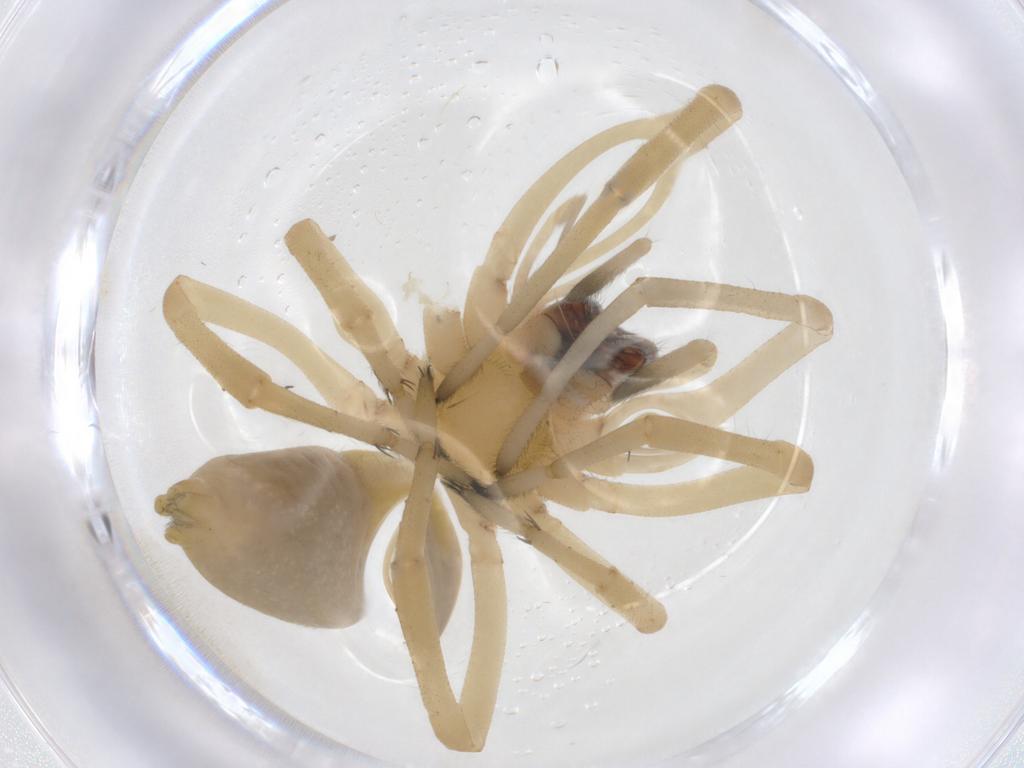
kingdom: Animalia
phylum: Arthropoda
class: Arachnida
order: Araneae
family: Cheiracanthiidae
